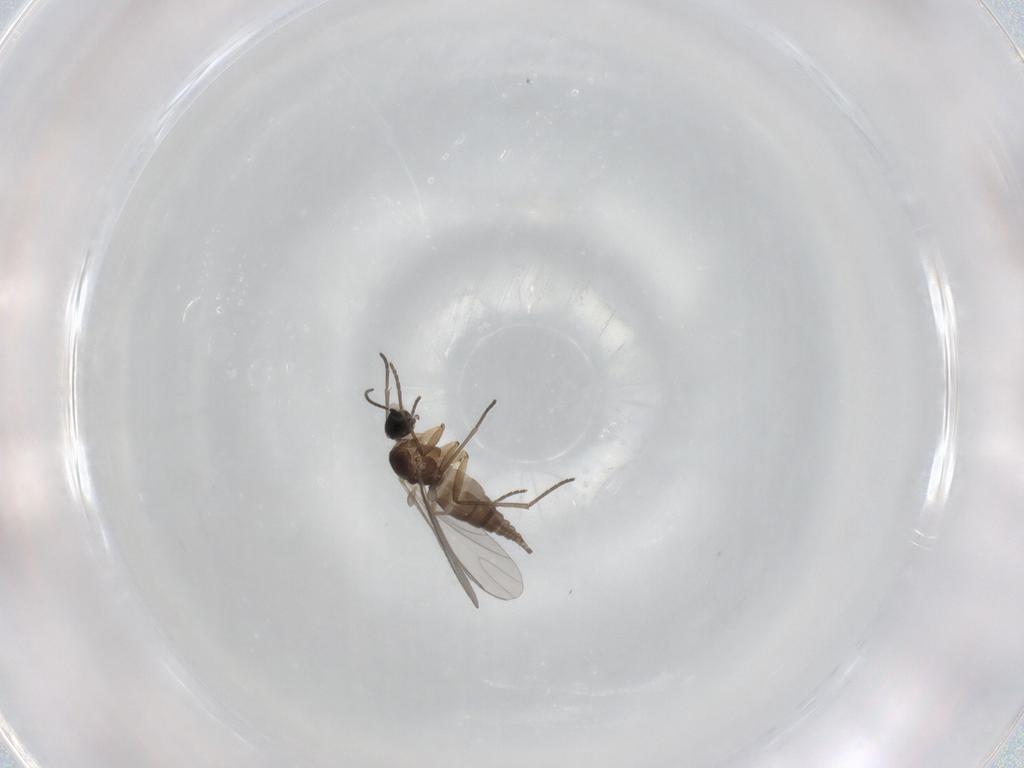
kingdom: Animalia
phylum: Arthropoda
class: Insecta
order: Diptera
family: Sciaridae
